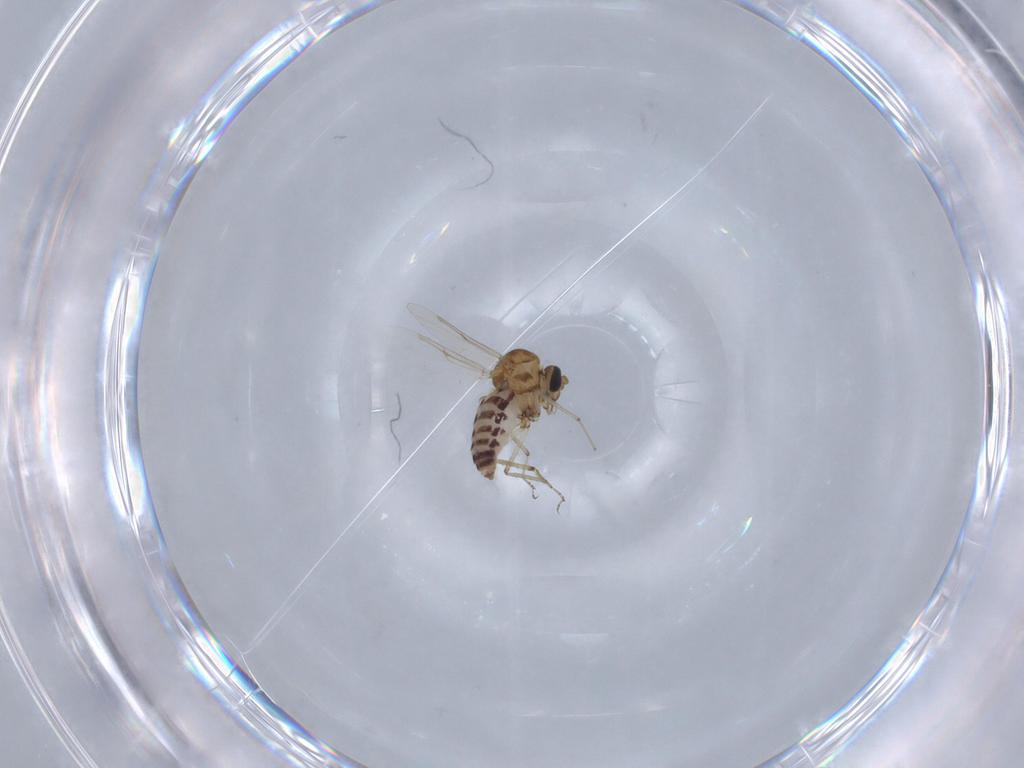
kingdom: Animalia
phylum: Arthropoda
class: Insecta
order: Diptera
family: Ceratopogonidae
